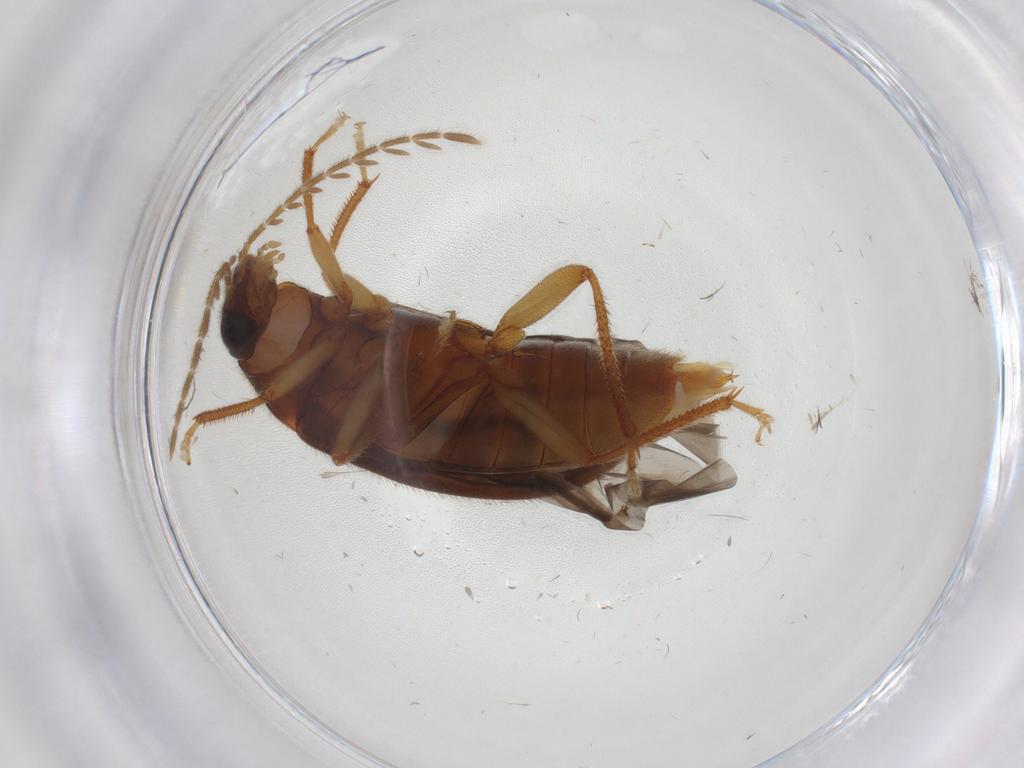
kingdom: Animalia
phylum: Arthropoda
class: Insecta
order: Coleoptera
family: Ptilodactylidae
